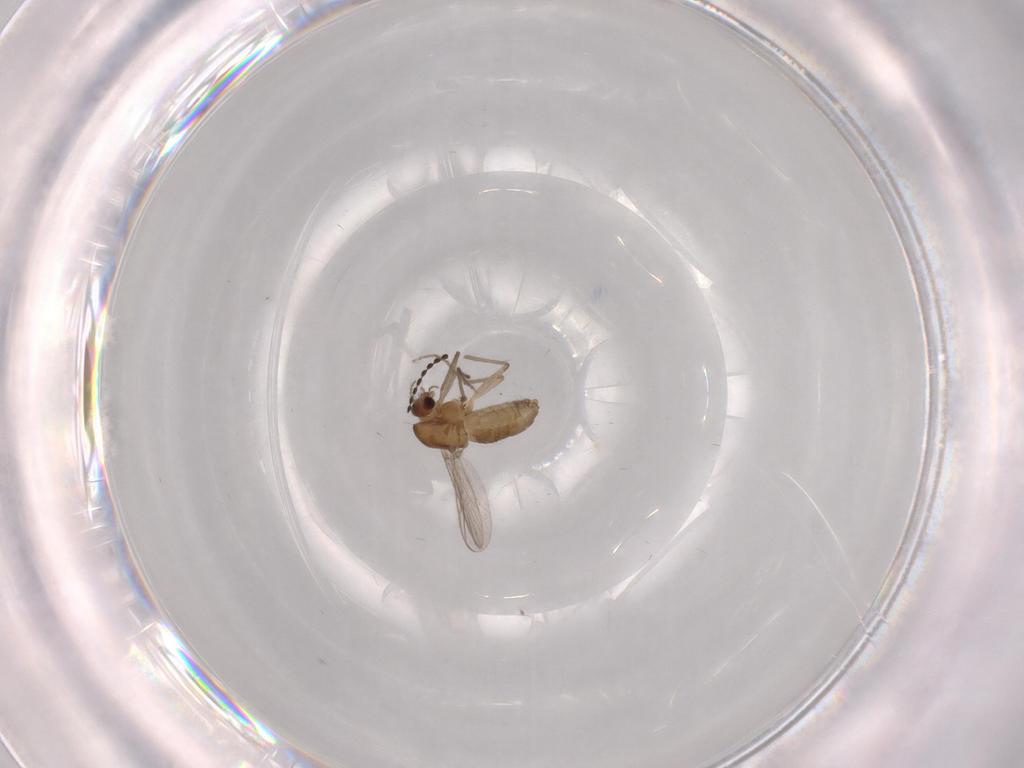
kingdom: Animalia
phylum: Arthropoda
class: Insecta
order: Diptera
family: Chironomidae
